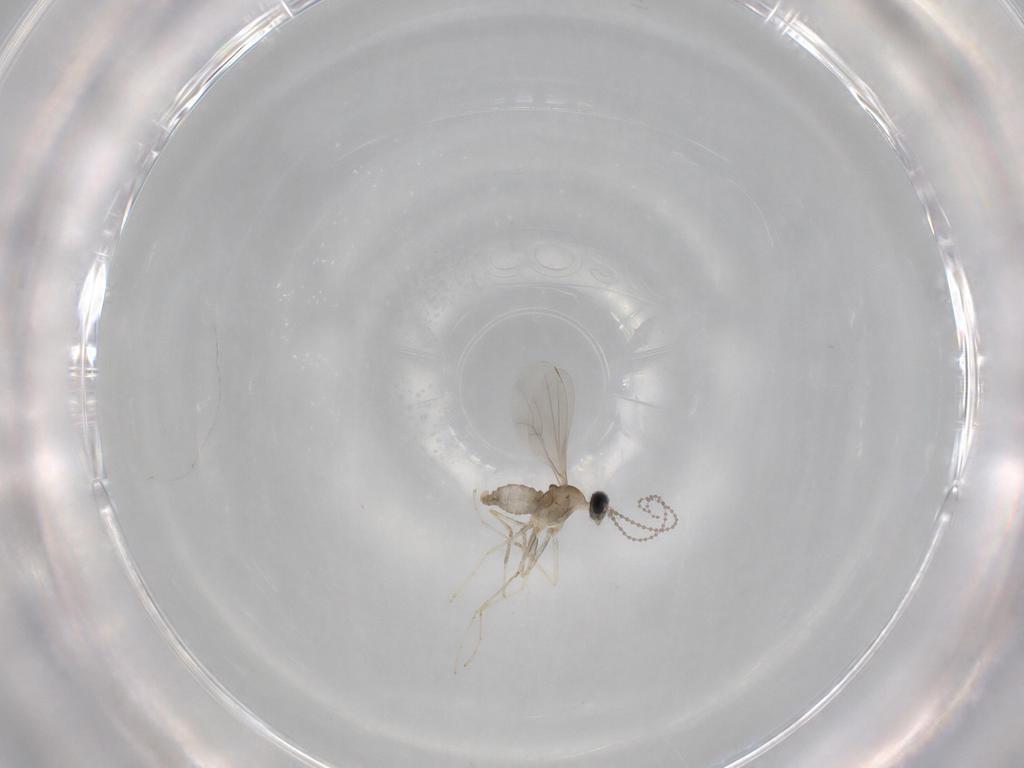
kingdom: Animalia
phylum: Arthropoda
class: Insecta
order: Diptera
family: Cecidomyiidae
